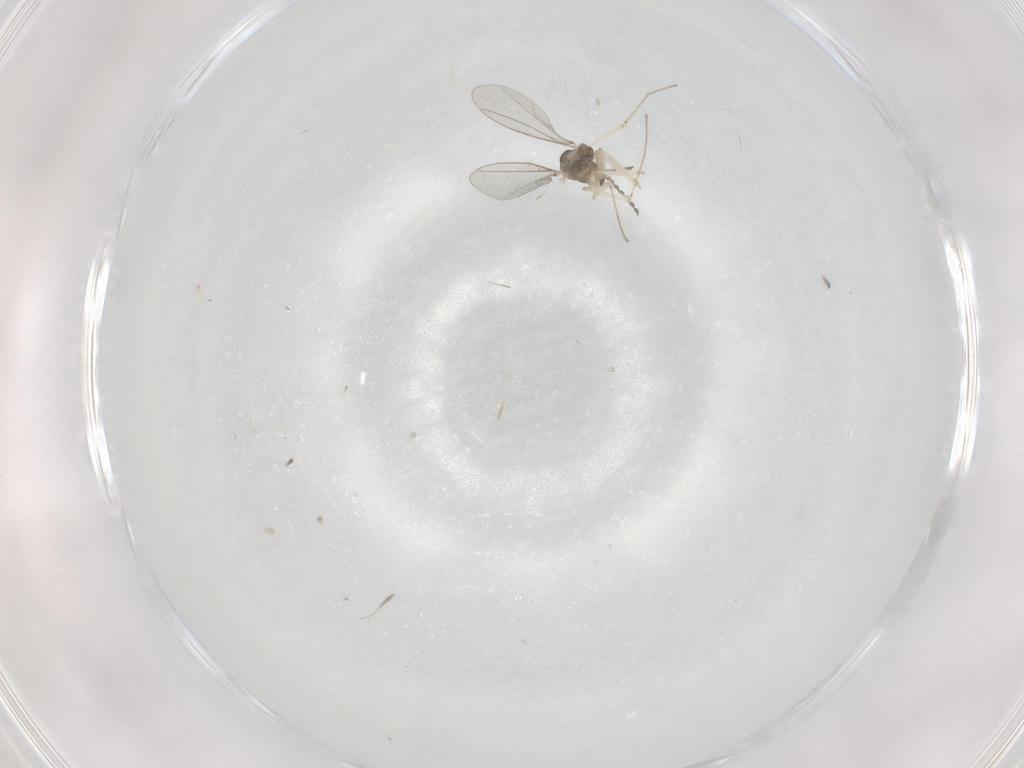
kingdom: Animalia
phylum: Arthropoda
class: Insecta
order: Diptera
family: Cecidomyiidae
